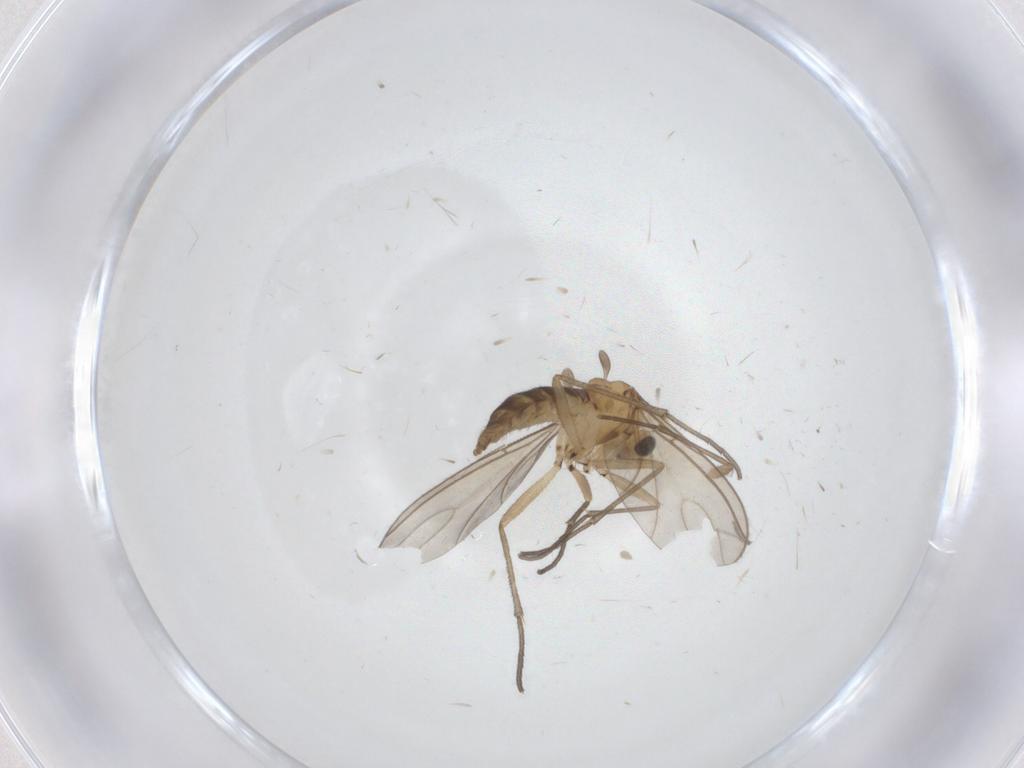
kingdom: Animalia
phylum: Arthropoda
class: Insecta
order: Diptera
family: Sciaridae
